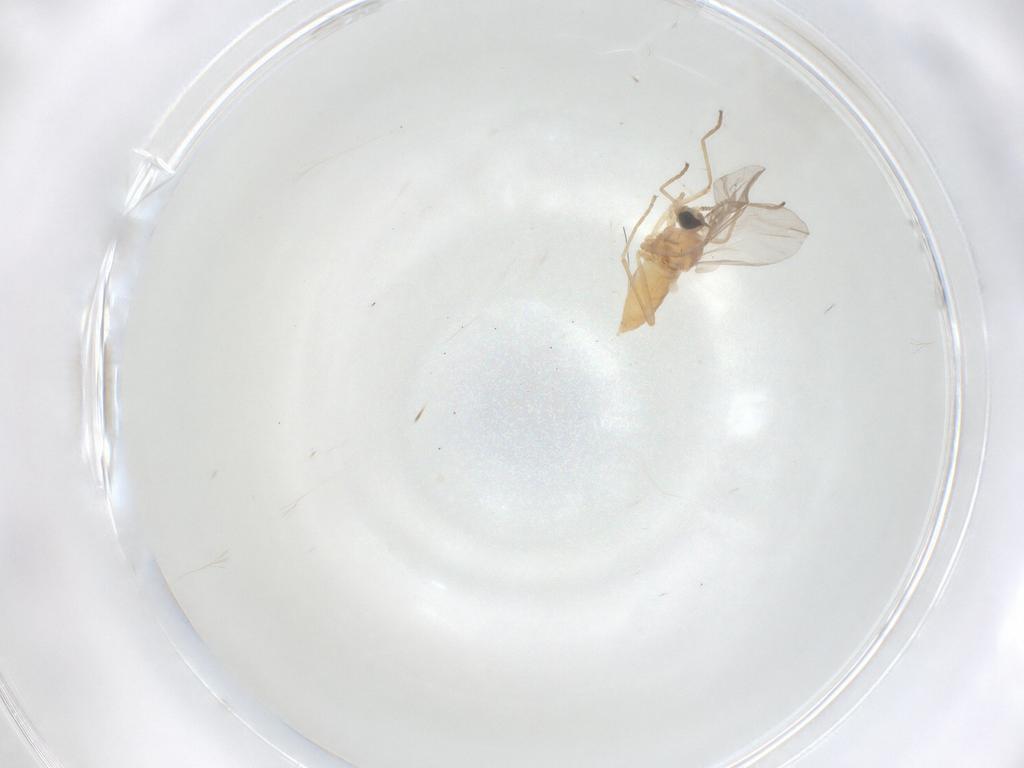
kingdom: Animalia
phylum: Arthropoda
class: Insecta
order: Diptera
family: Cecidomyiidae
